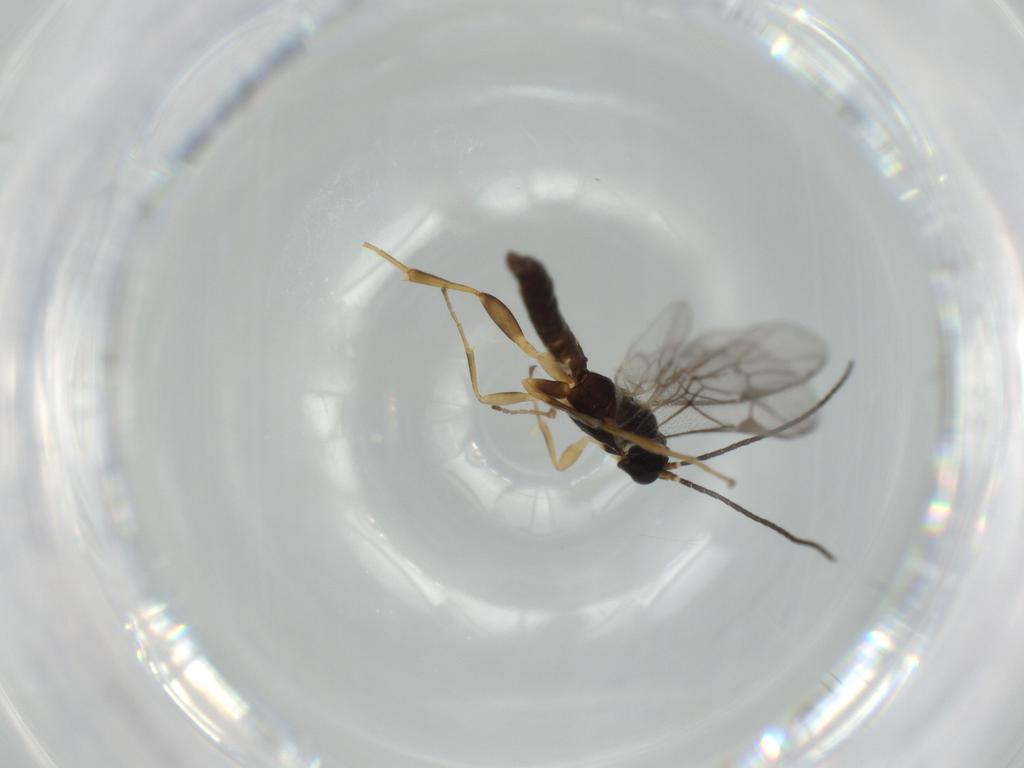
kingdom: Animalia
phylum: Arthropoda
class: Insecta
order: Hymenoptera
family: Ichneumonidae
